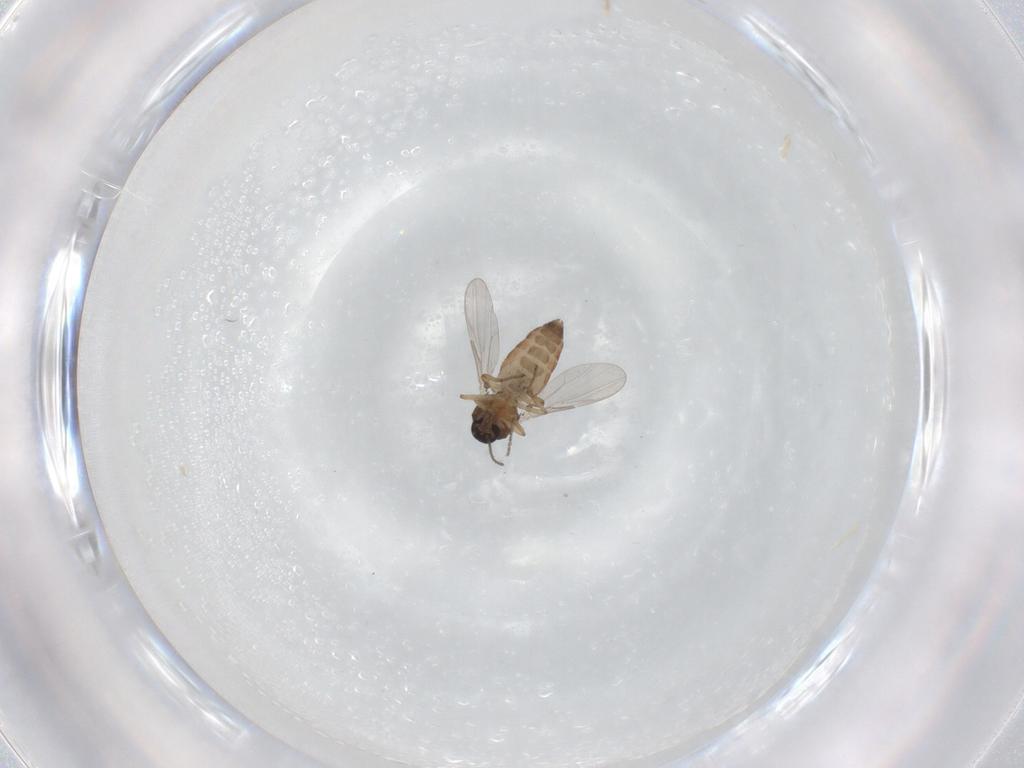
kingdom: Animalia
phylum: Arthropoda
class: Insecta
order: Diptera
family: Ceratopogonidae
